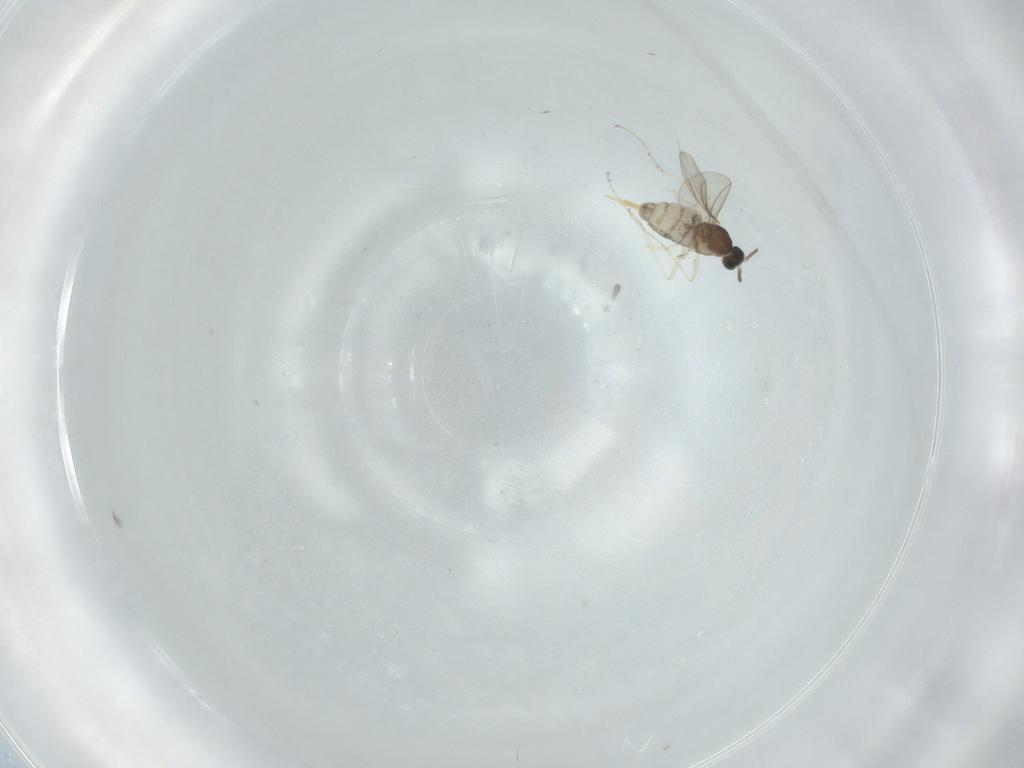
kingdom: Animalia
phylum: Arthropoda
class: Insecta
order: Diptera
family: Cecidomyiidae
